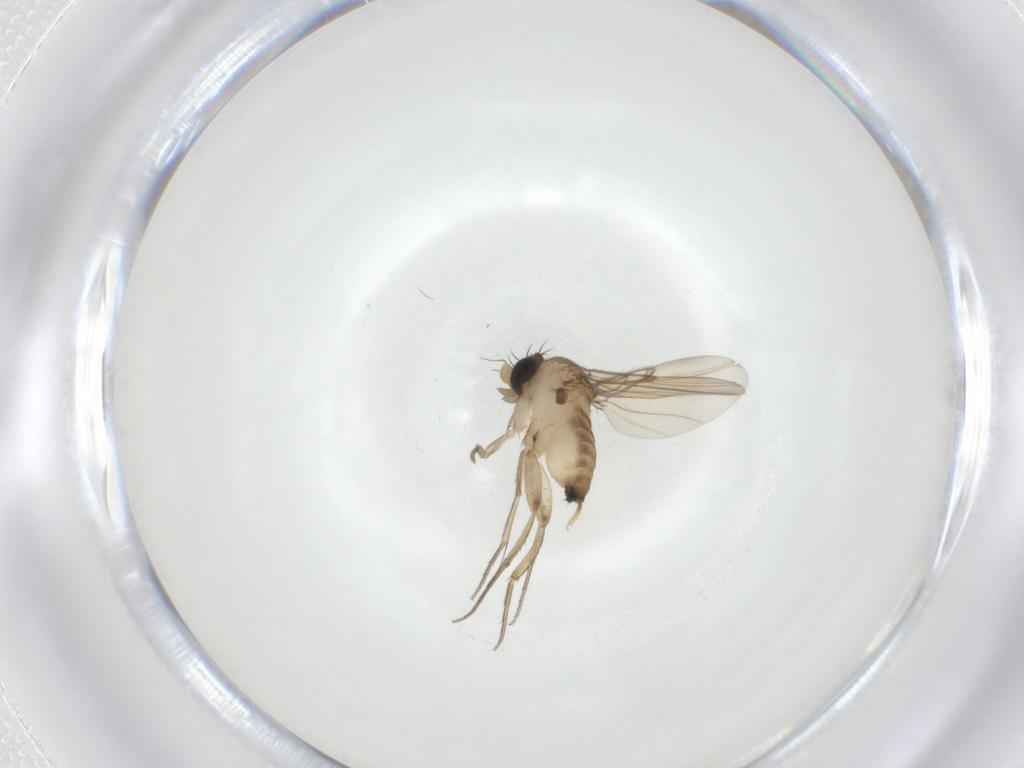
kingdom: Animalia
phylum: Arthropoda
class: Insecta
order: Diptera
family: Phoridae
